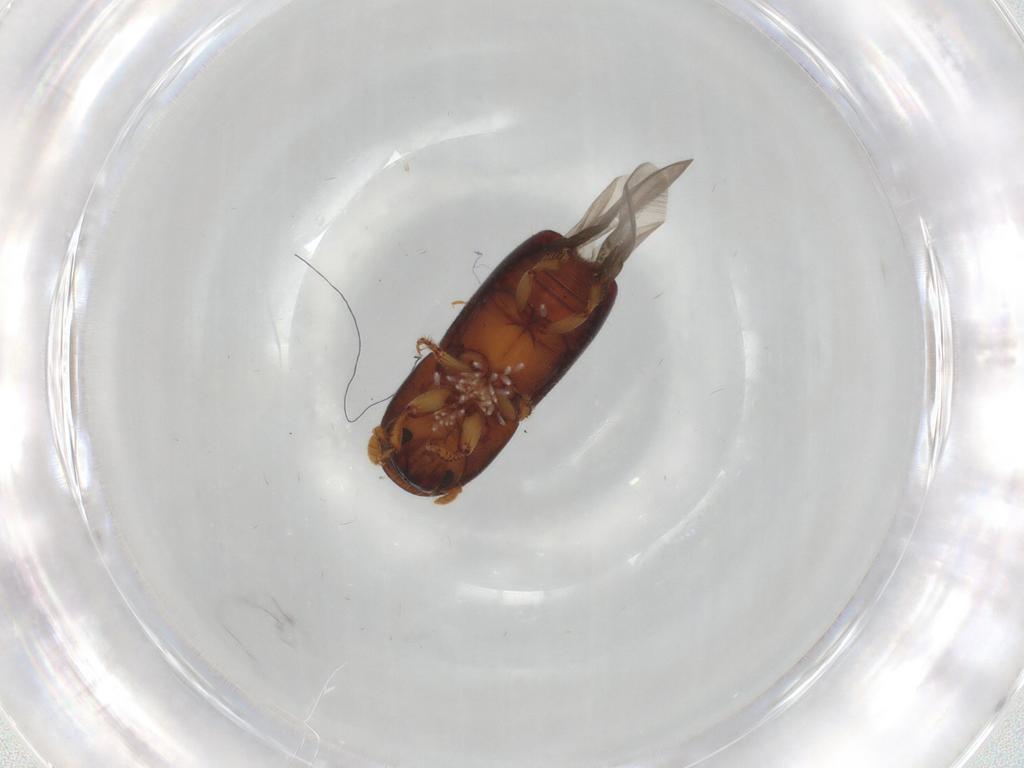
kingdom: Animalia
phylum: Arthropoda
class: Insecta
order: Coleoptera
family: Curculionidae
